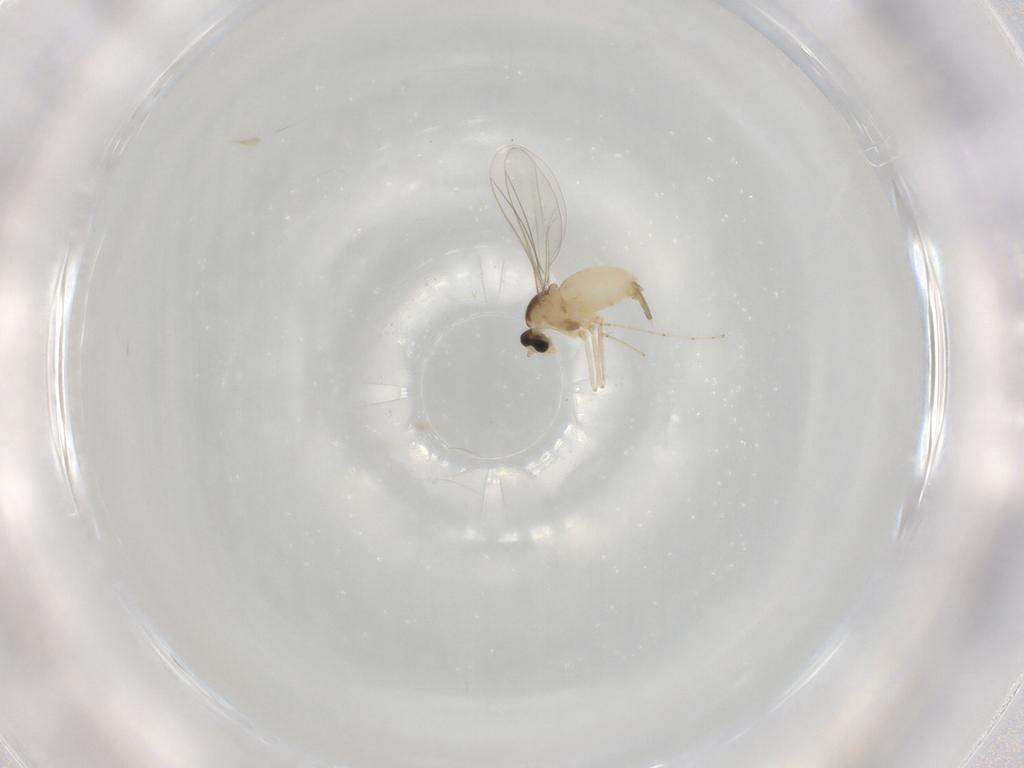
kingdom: Animalia
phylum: Arthropoda
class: Insecta
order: Diptera
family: Cecidomyiidae
